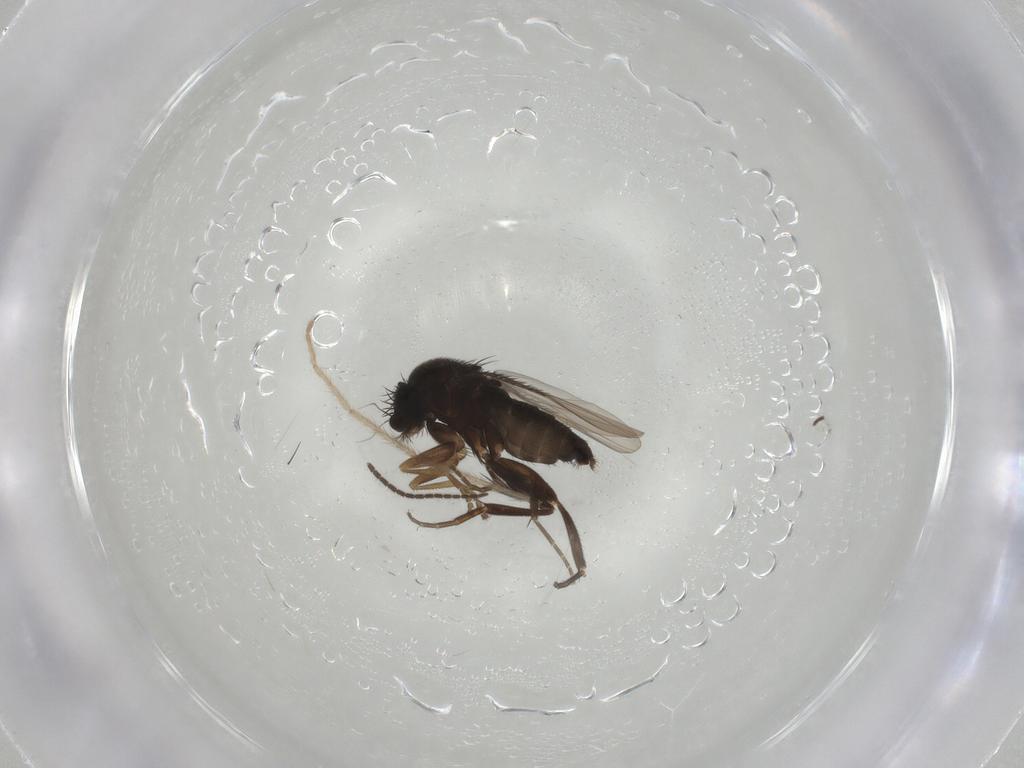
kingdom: Animalia
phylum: Arthropoda
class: Insecta
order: Diptera
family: Phoridae
